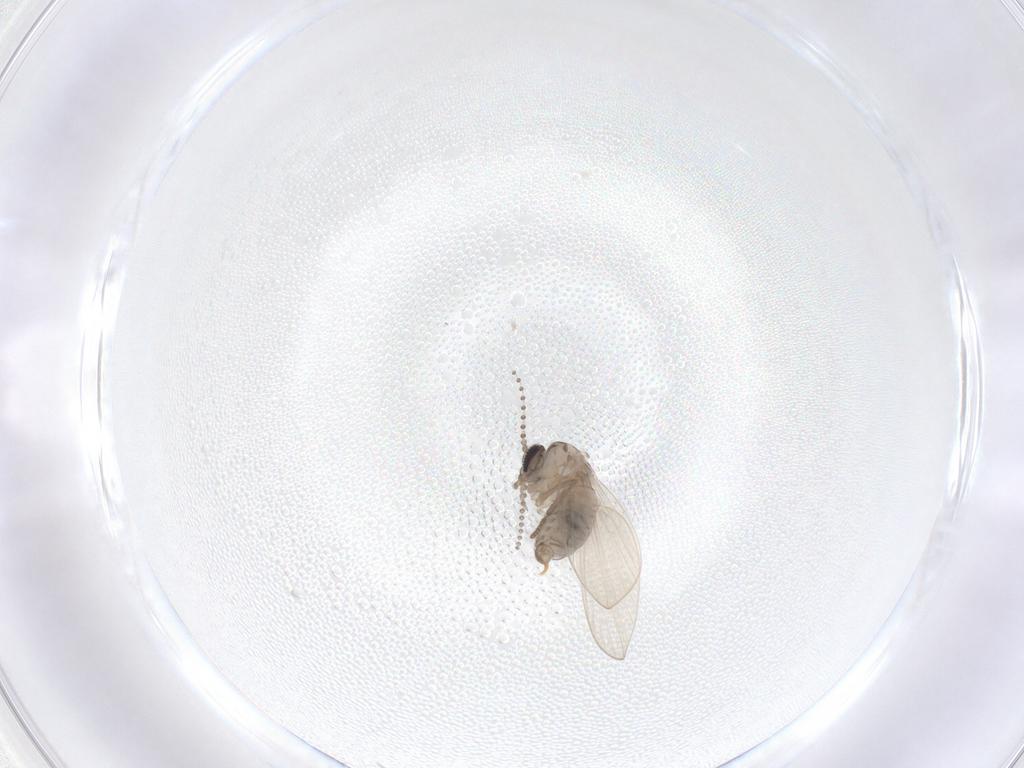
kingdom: Animalia
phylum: Arthropoda
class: Insecta
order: Diptera
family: Psychodidae
